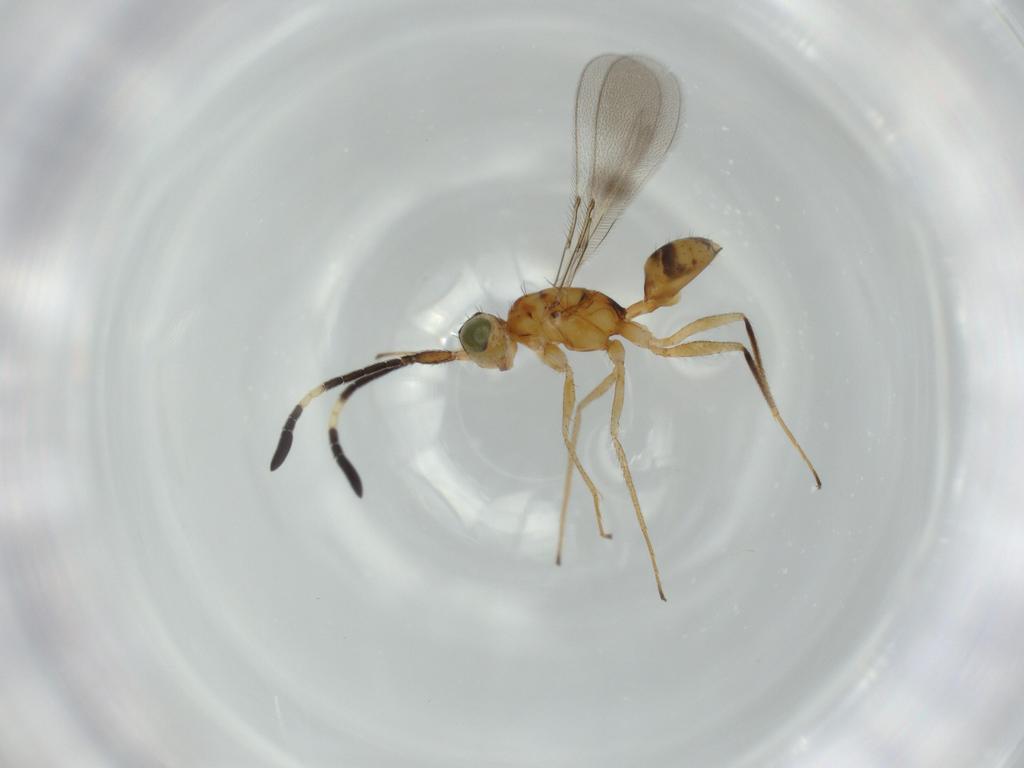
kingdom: Animalia
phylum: Arthropoda
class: Insecta
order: Hymenoptera
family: Mymaridae
